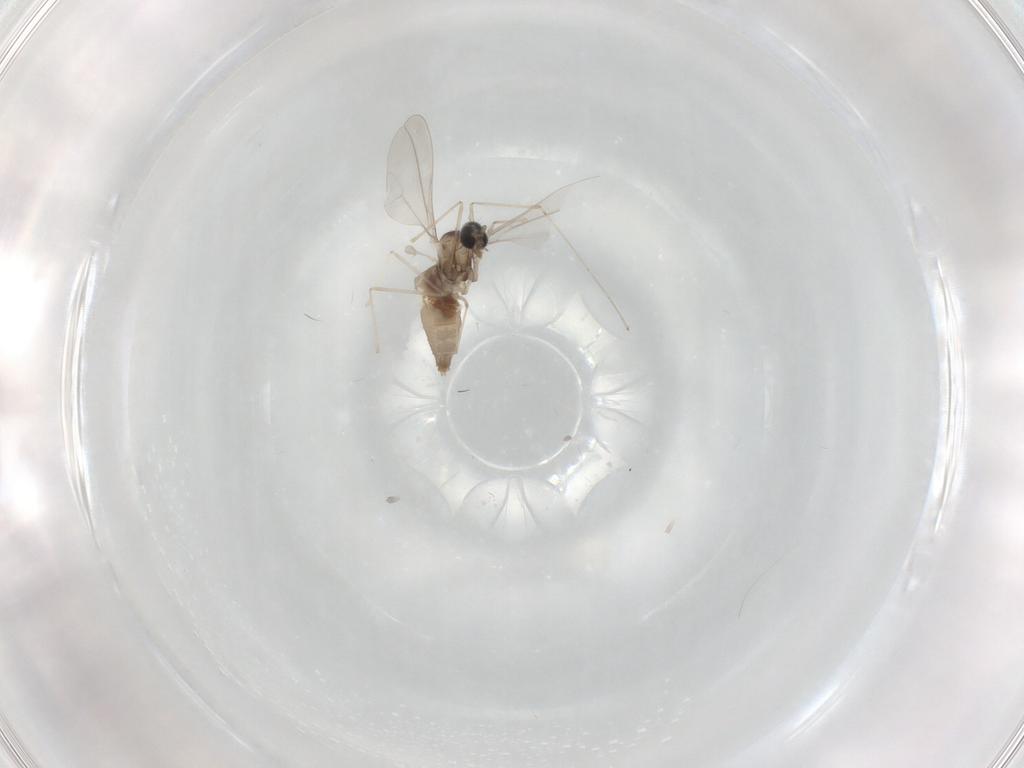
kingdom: Animalia
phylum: Arthropoda
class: Insecta
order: Diptera
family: Cecidomyiidae
